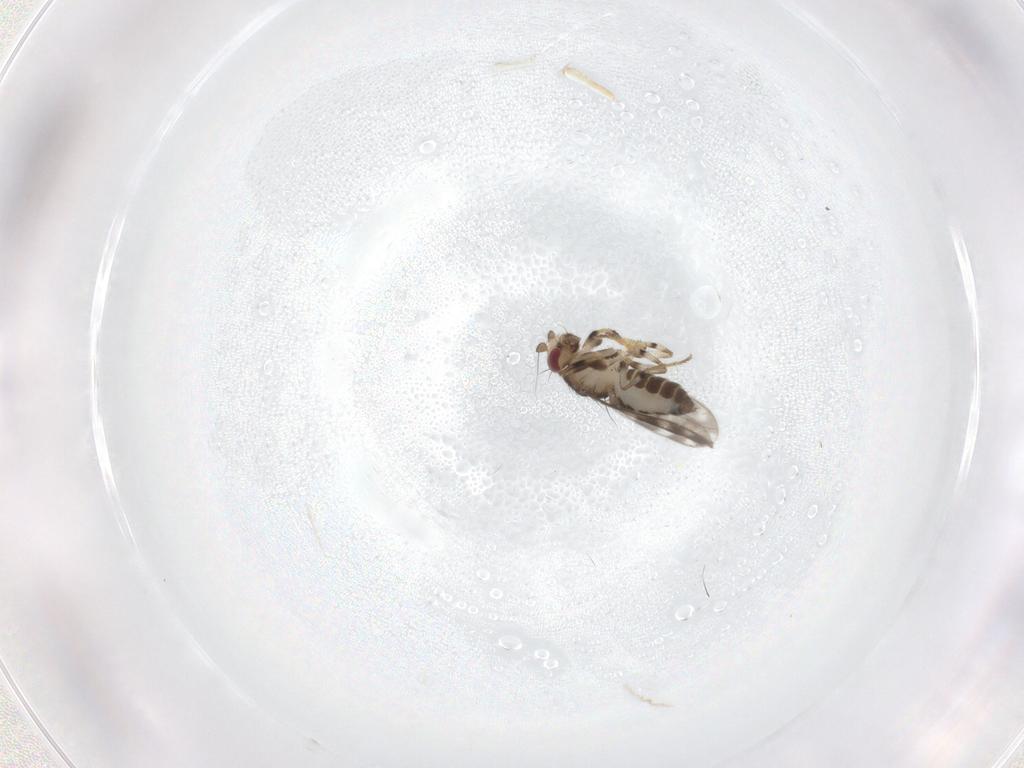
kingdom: Animalia
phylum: Arthropoda
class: Insecta
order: Diptera
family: Sphaeroceridae
